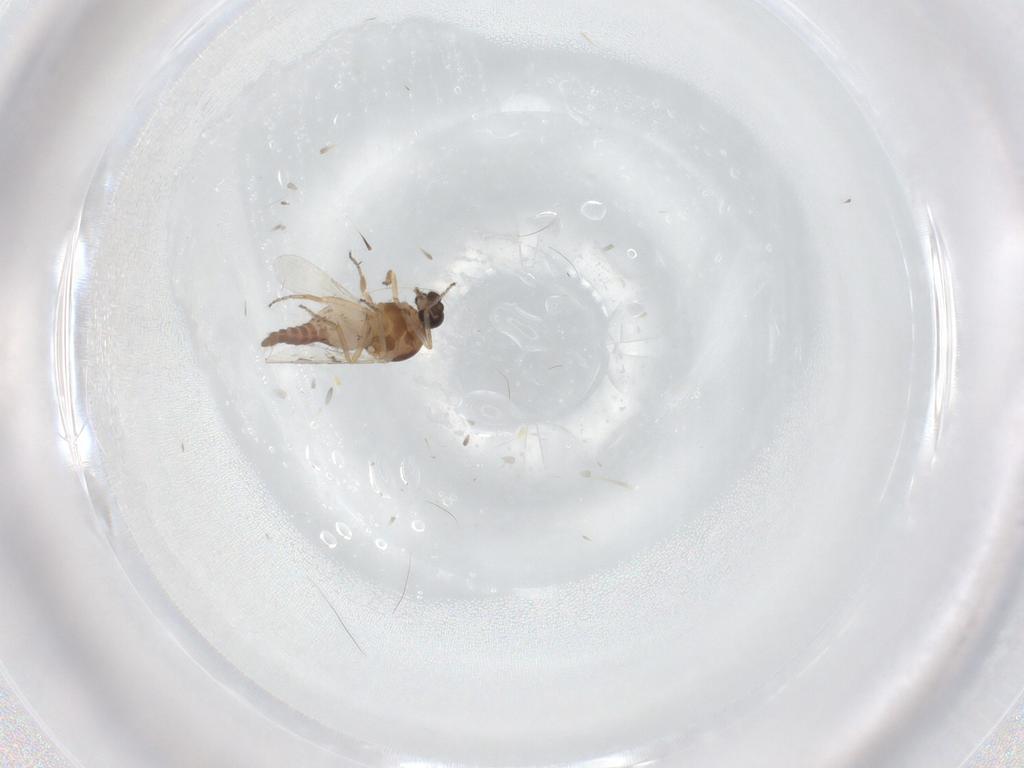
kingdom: Animalia
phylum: Arthropoda
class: Insecta
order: Diptera
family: Ceratopogonidae
